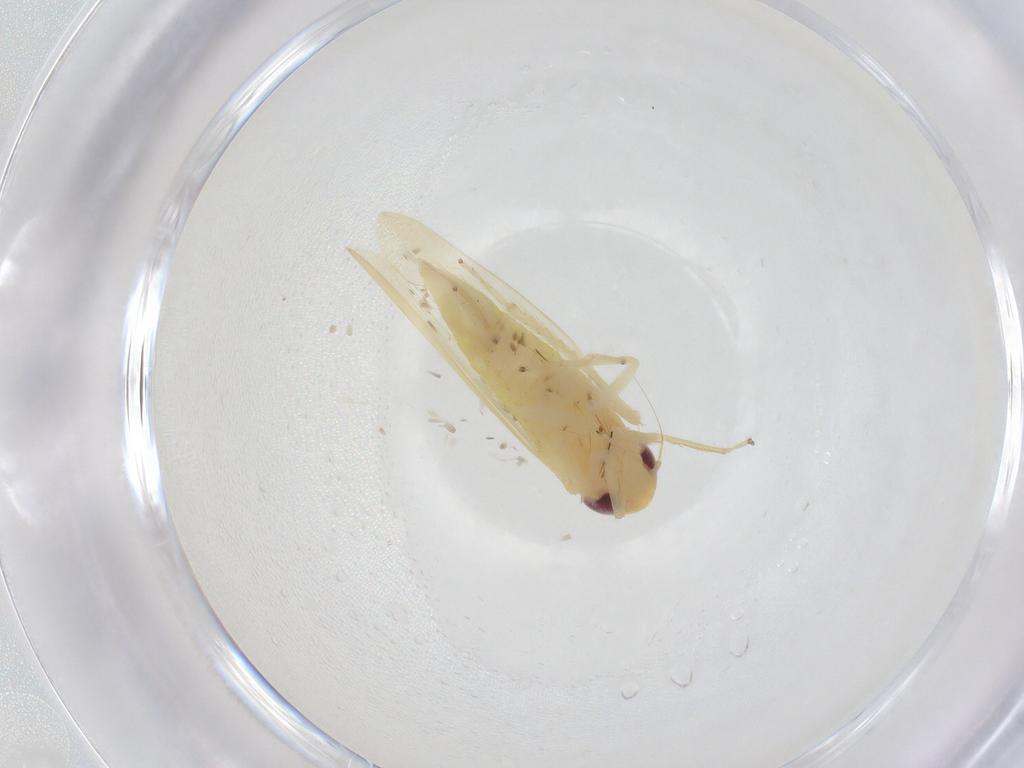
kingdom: Animalia
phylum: Arthropoda
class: Insecta
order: Hemiptera
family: Cicadellidae
